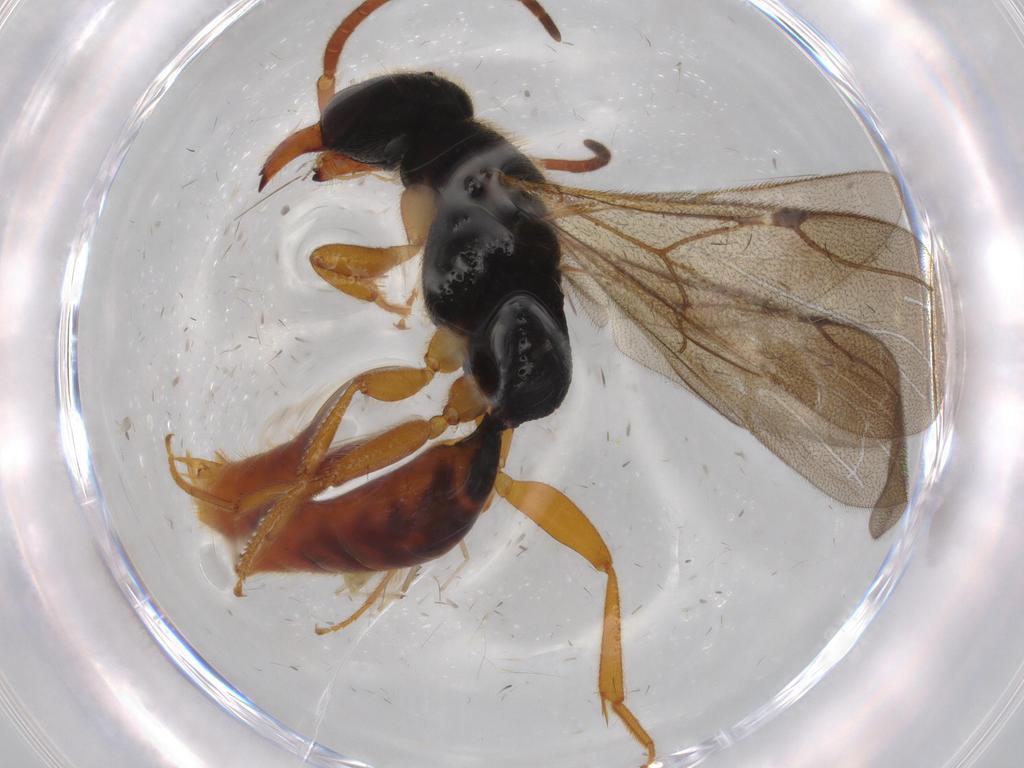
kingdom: Animalia
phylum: Arthropoda
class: Insecta
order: Hymenoptera
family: Bethylidae
